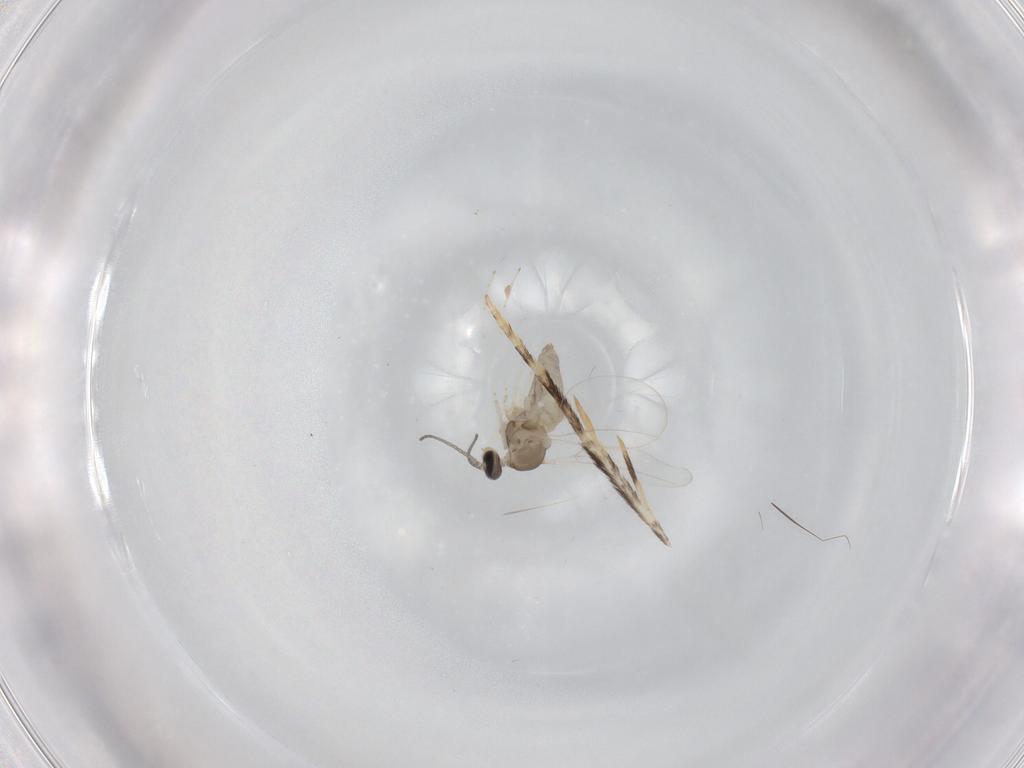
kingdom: Animalia
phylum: Arthropoda
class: Insecta
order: Diptera
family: Cecidomyiidae
